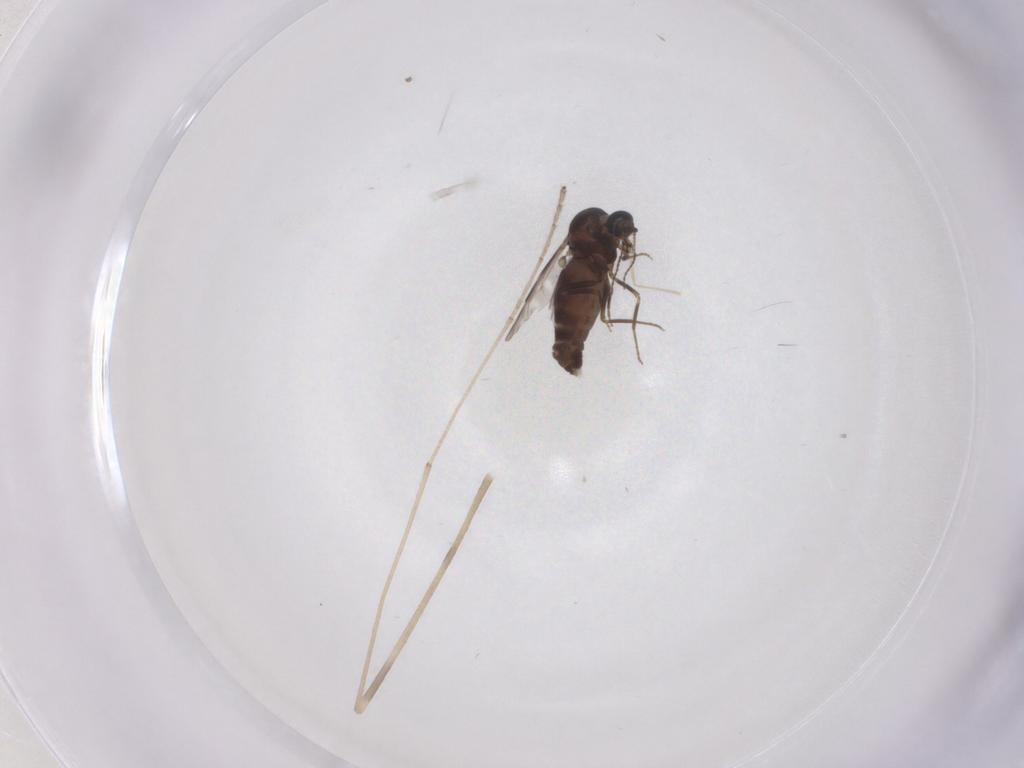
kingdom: Animalia
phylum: Arthropoda
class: Insecta
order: Diptera
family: Limoniidae
